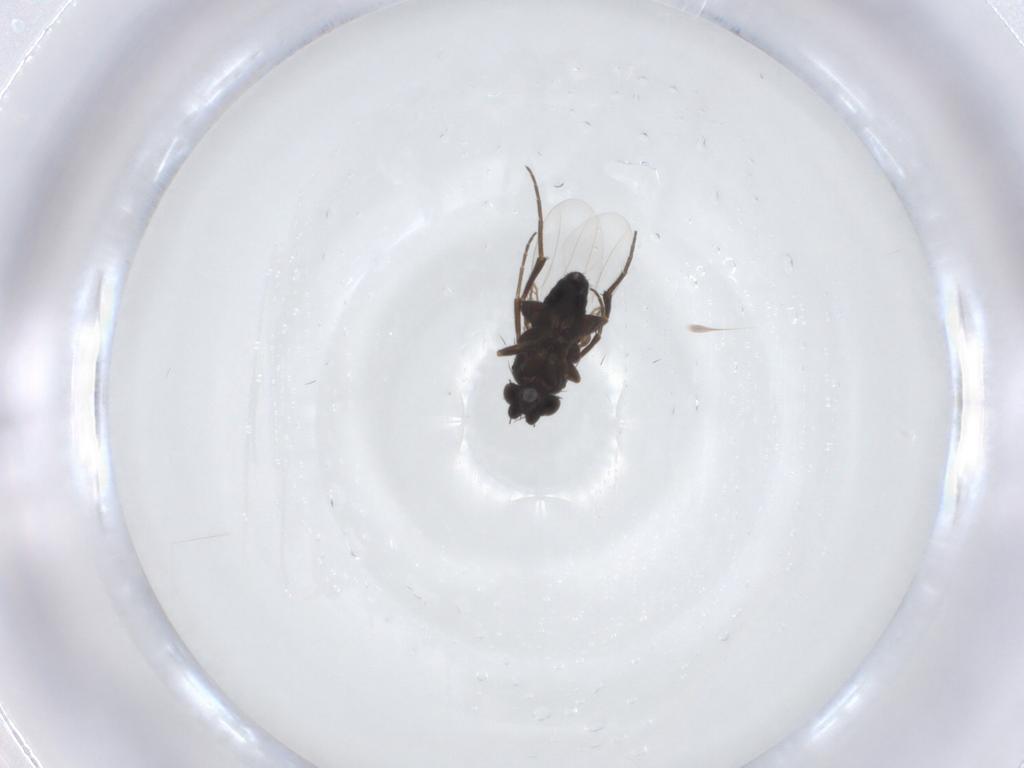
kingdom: Animalia
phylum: Arthropoda
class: Insecta
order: Diptera
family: Phoridae
